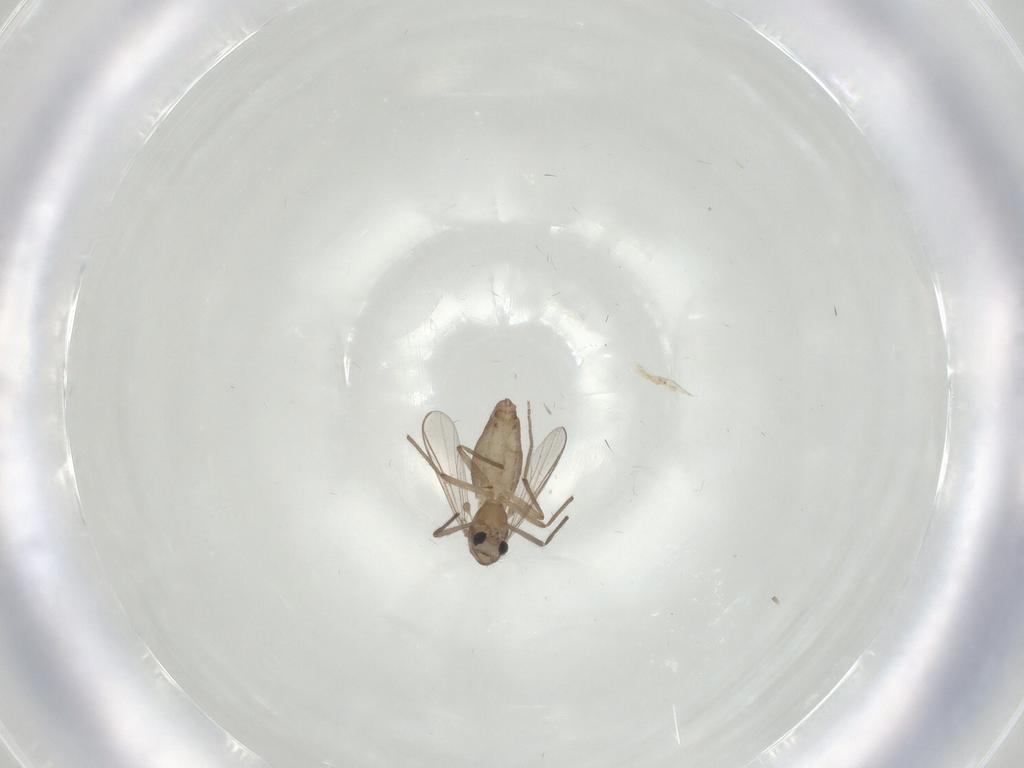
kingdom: Animalia
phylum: Arthropoda
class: Insecta
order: Diptera
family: Chironomidae
